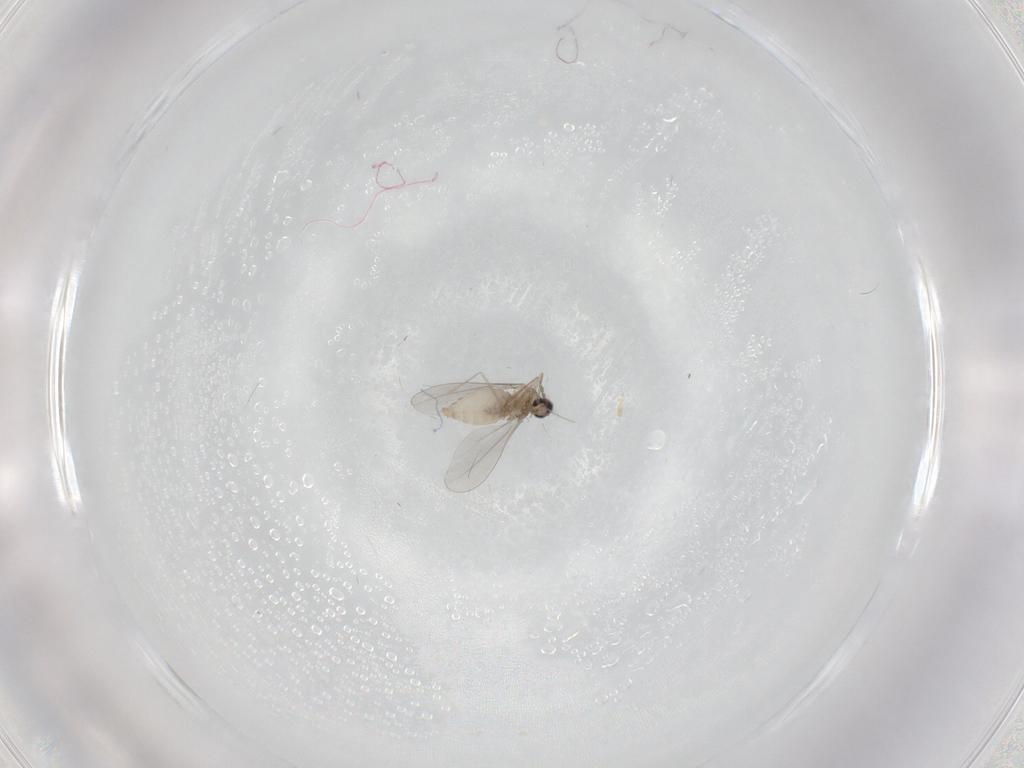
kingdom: Animalia
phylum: Arthropoda
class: Insecta
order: Diptera
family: Cecidomyiidae
